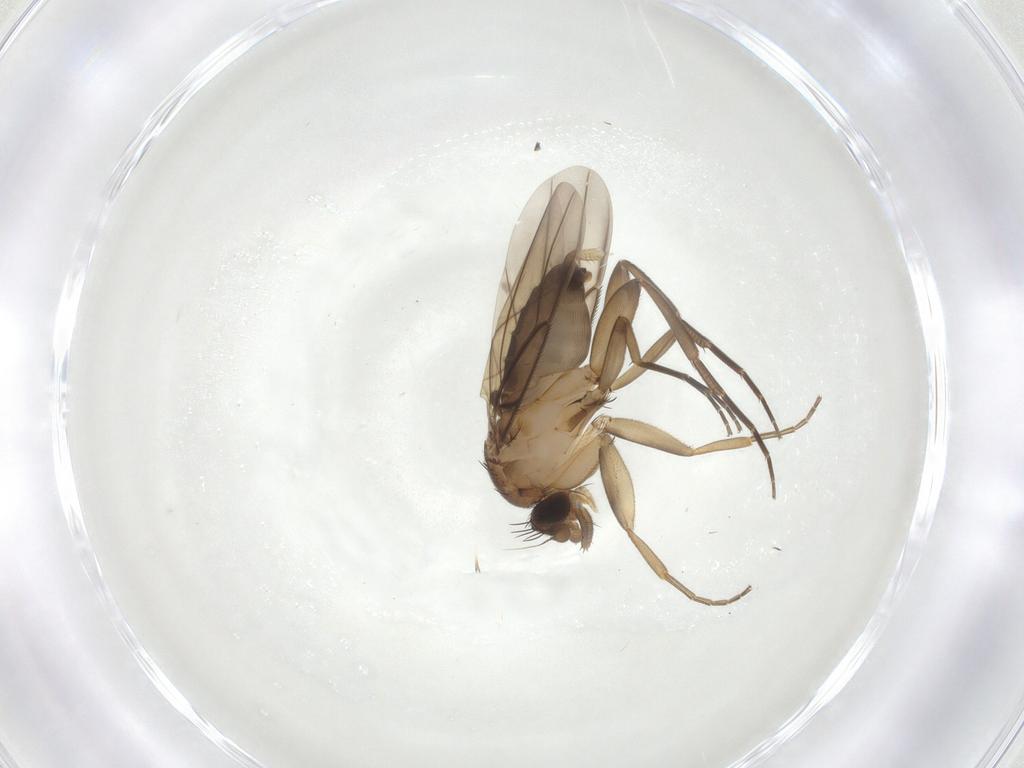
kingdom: Animalia
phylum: Arthropoda
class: Insecta
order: Diptera
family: Phoridae
